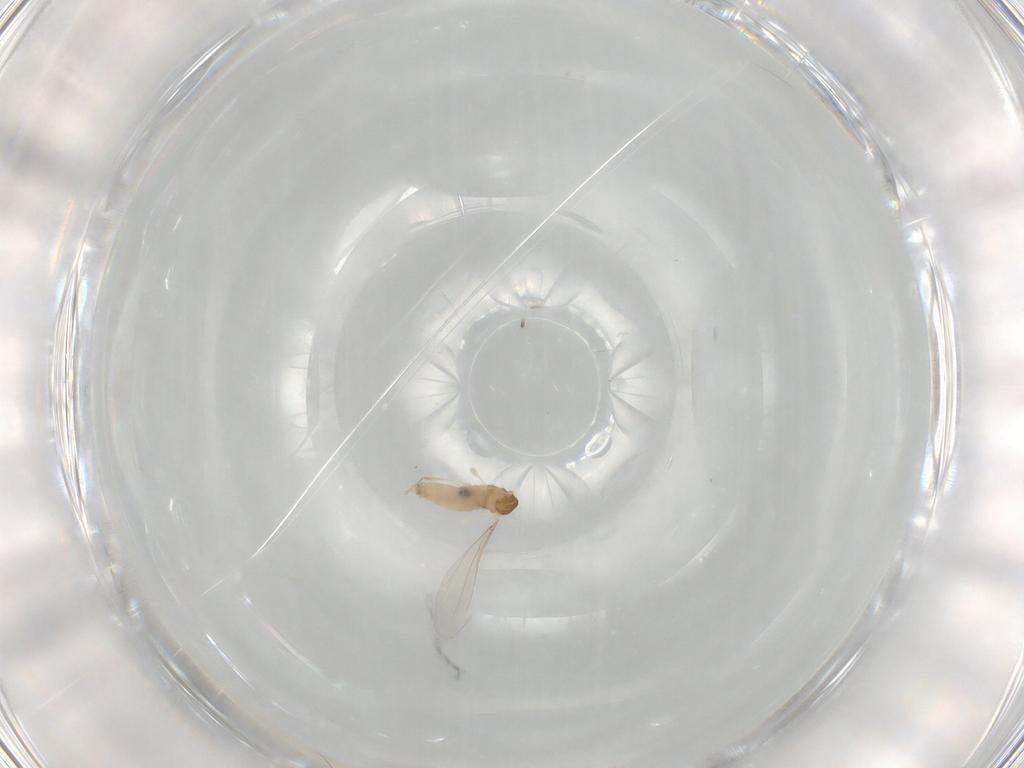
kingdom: Animalia
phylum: Arthropoda
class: Insecta
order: Diptera
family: Cecidomyiidae
